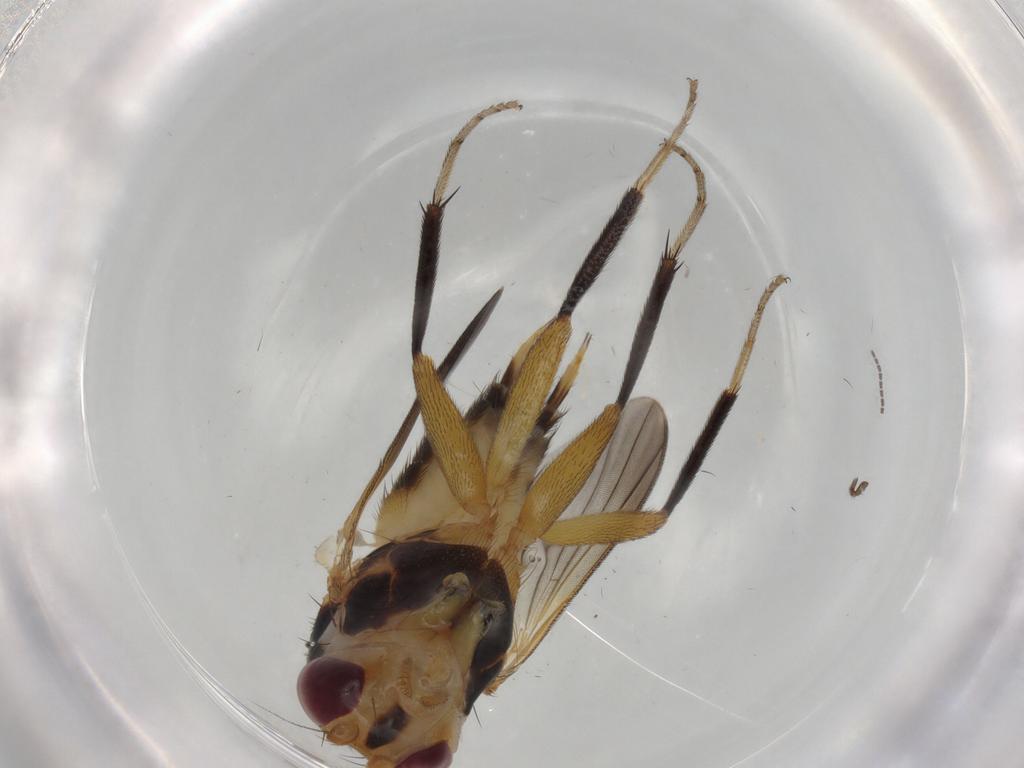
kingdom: Animalia
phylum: Arthropoda
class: Insecta
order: Diptera
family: Heleomyzidae
